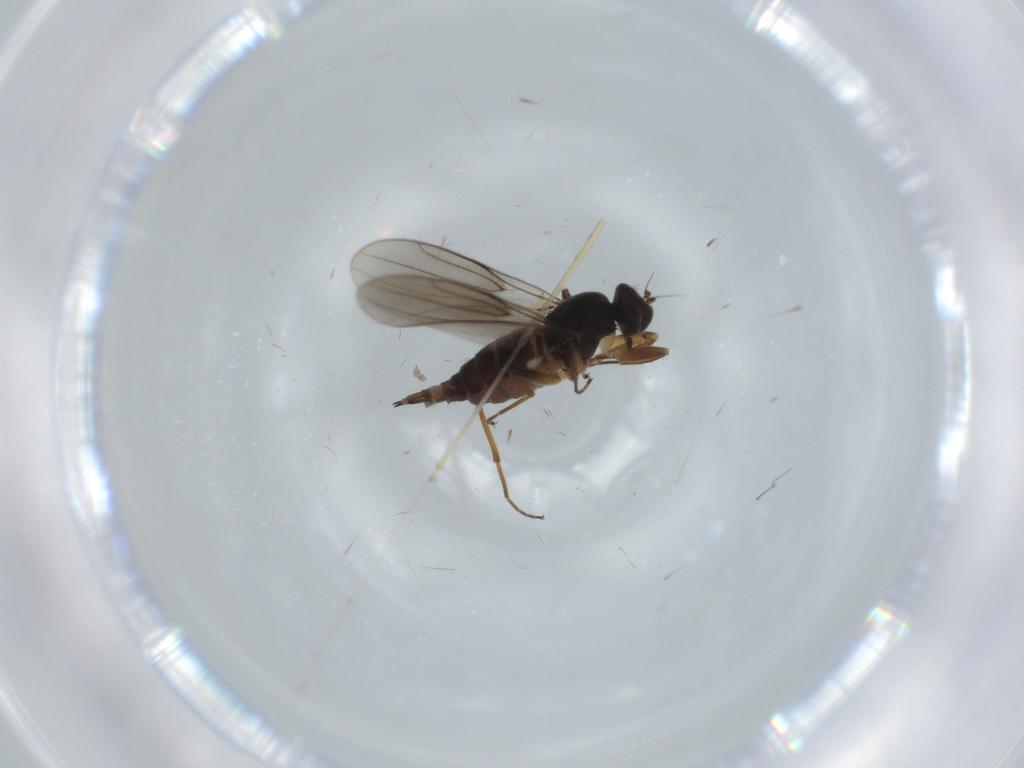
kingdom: Animalia
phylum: Arthropoda
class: Insecta
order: Diptera
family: Hybotidae
